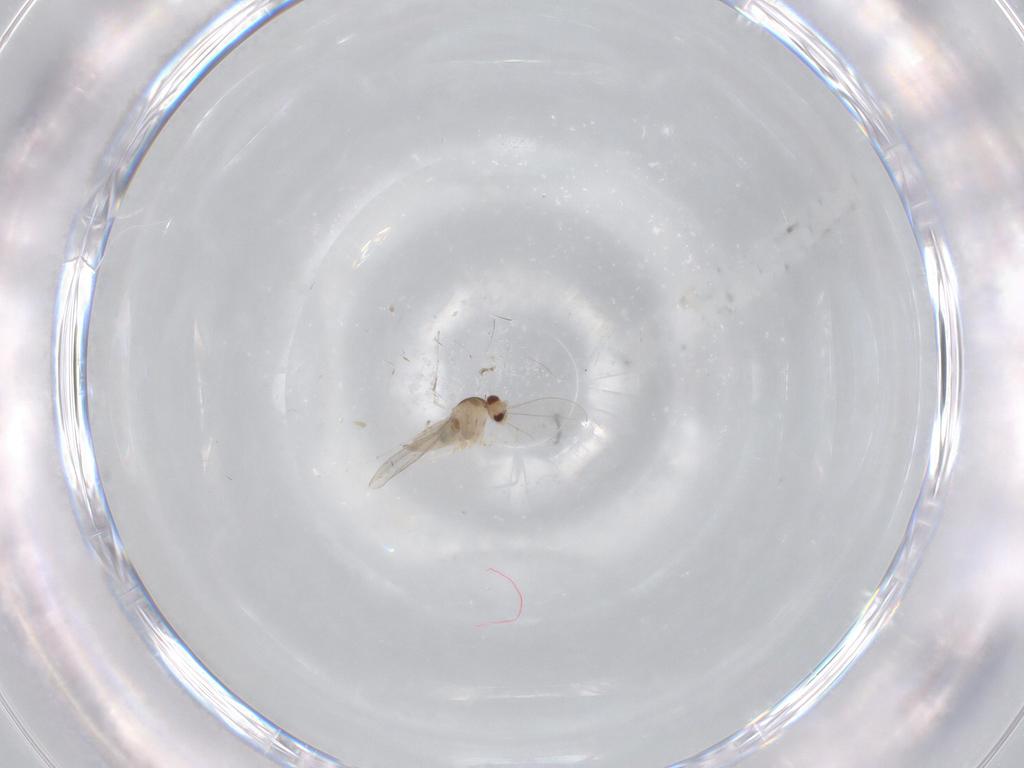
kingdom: Animalia
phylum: Arthropoda
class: Insecta
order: Diptera
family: Cecidomyiidae
